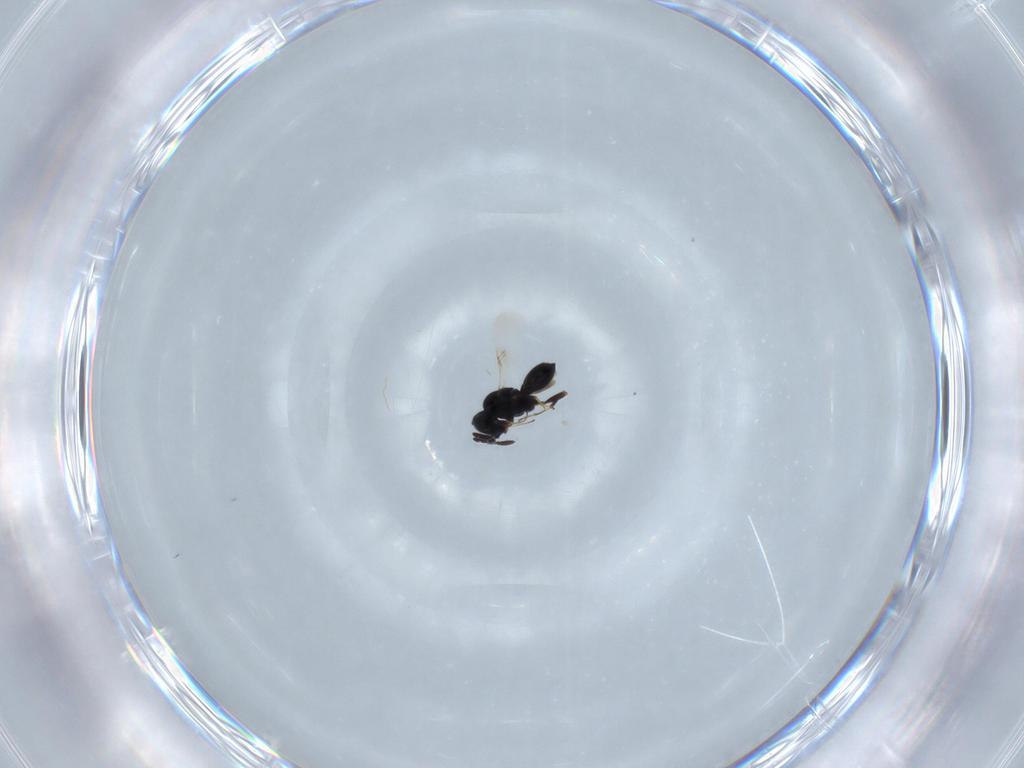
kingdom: Animalia
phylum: Arthropoda
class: Insecta
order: Hymenoptera
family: Scelionidae
